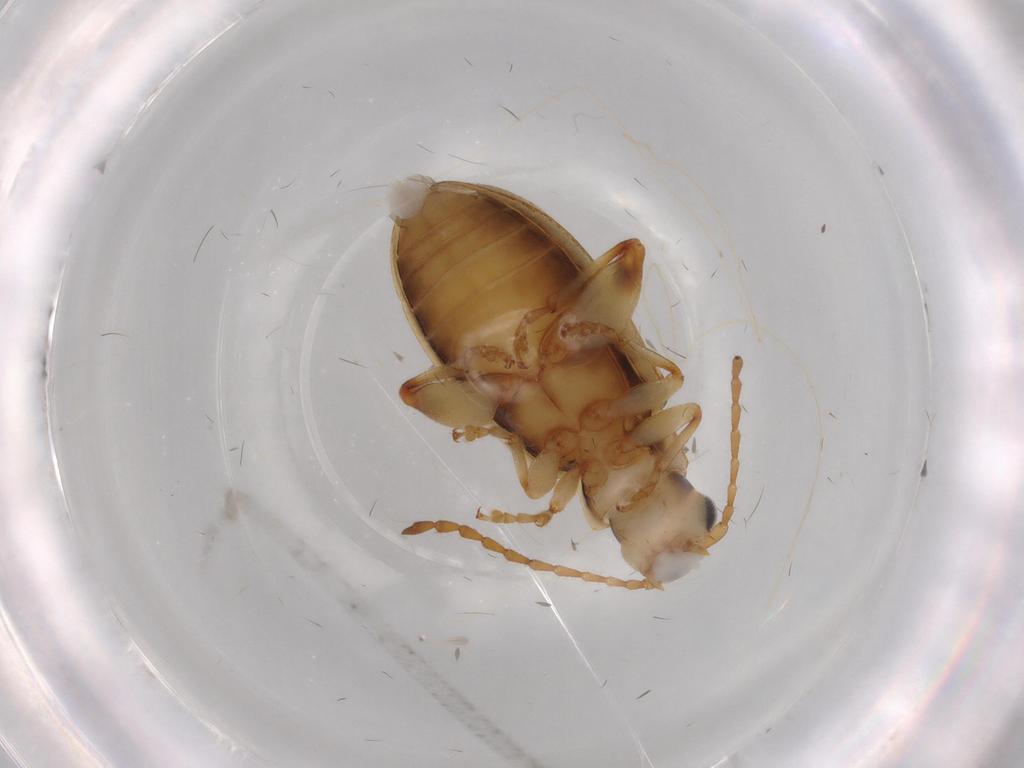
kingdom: Animalia
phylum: Arthropoda
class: Insecta
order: Coleoptera
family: Chrysomelidae
